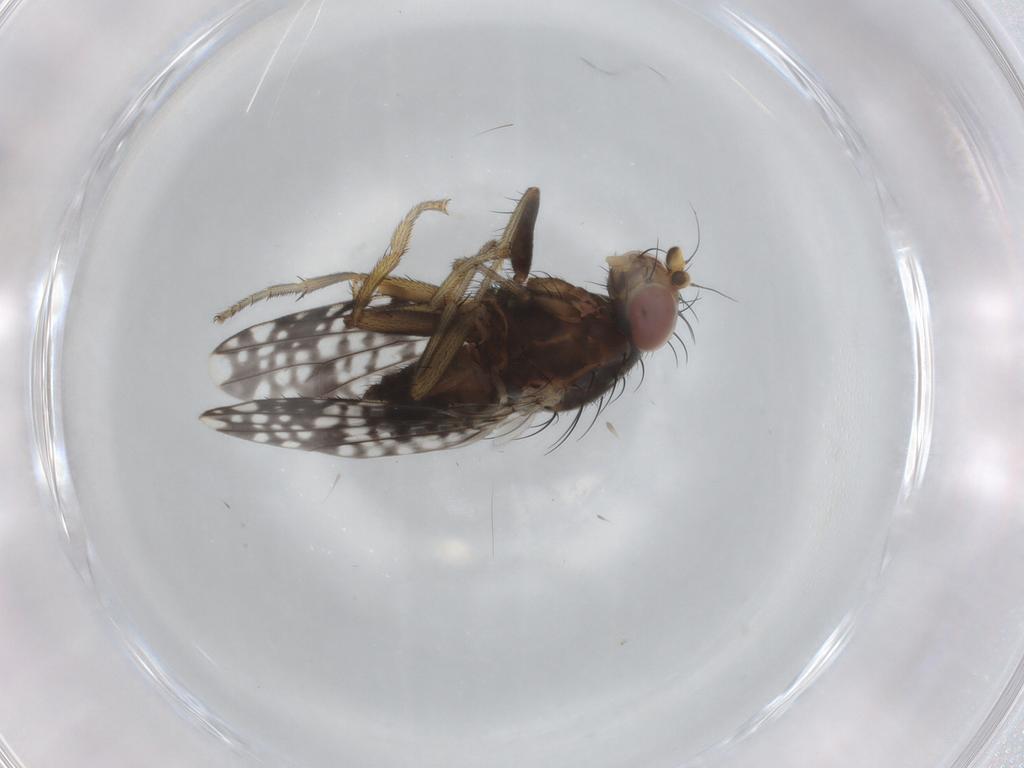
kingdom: Animalia
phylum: Arthropoda
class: Insecta
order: Diptera
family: Tephritidae
